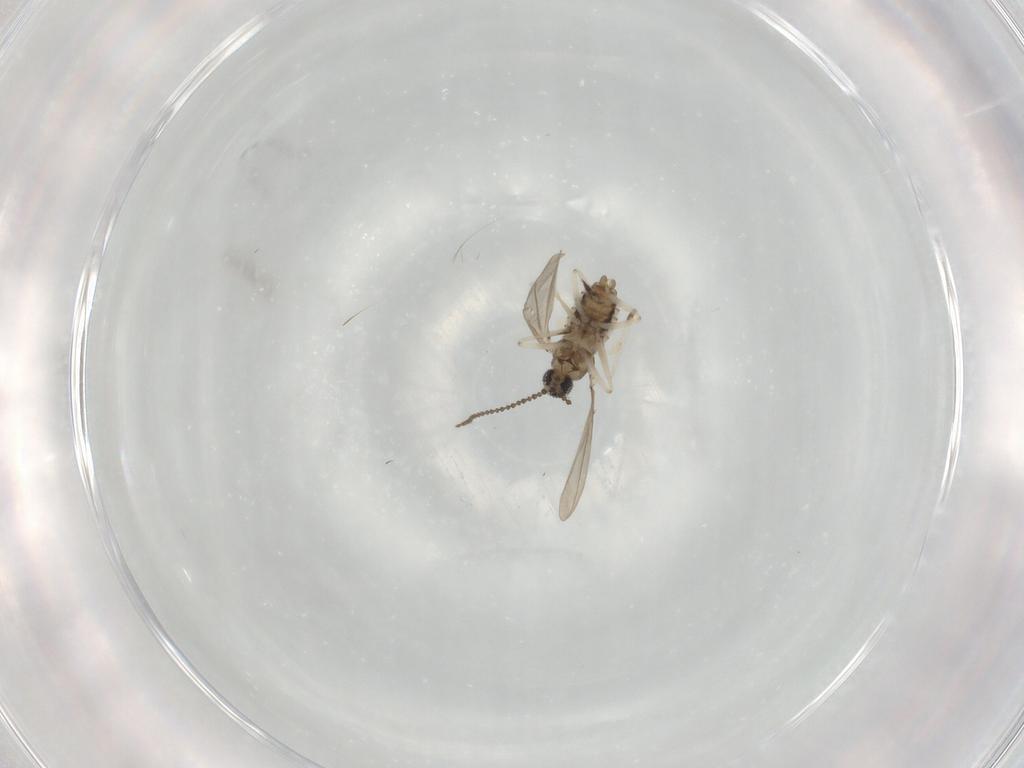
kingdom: Animalia
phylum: Arthropoda
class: Insecta
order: Diptera
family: Cecidomyiidae
